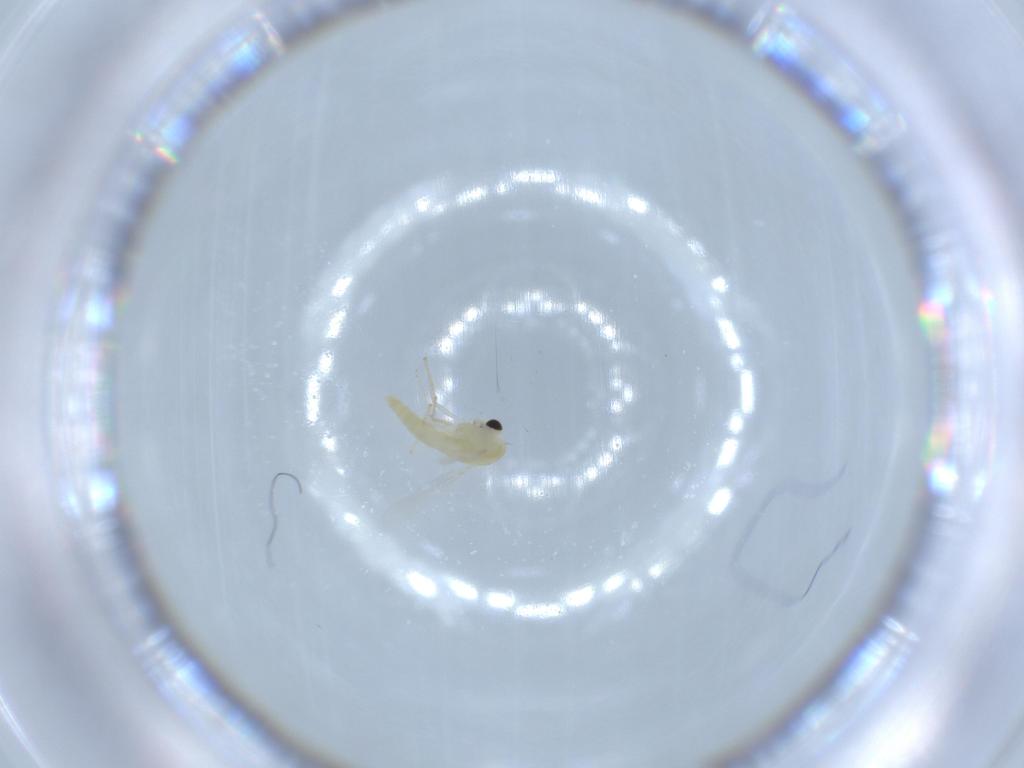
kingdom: Animalia
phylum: Arthropoda
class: Insecta
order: Diptera
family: Chironomidae
